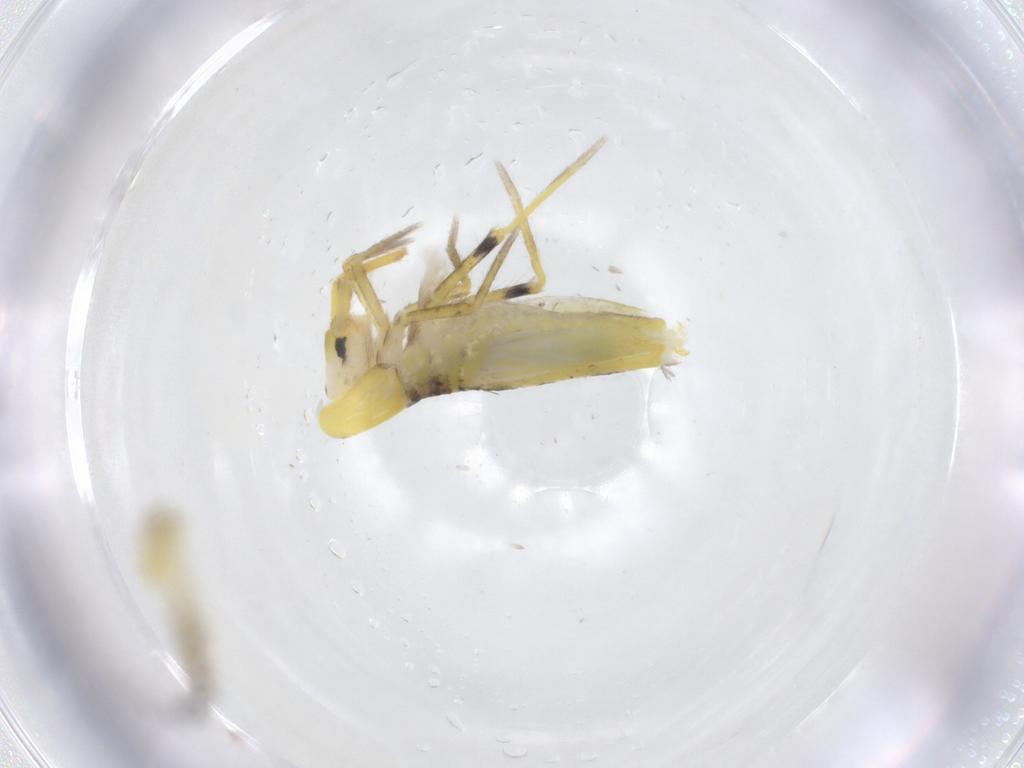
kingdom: Animalia
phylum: Arthropoda
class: Collembola
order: Entomobryomorpha
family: Entomobryidae
